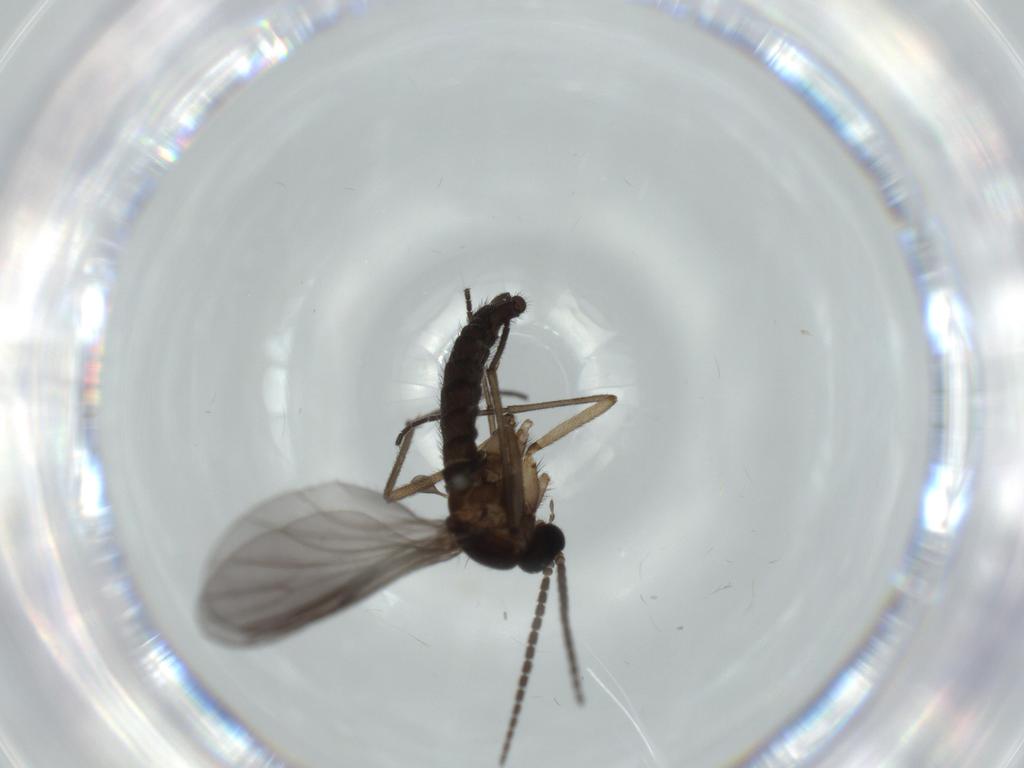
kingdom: Animalia
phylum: Arthropoda
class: Insecta
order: Diptera
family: Sciaridae
